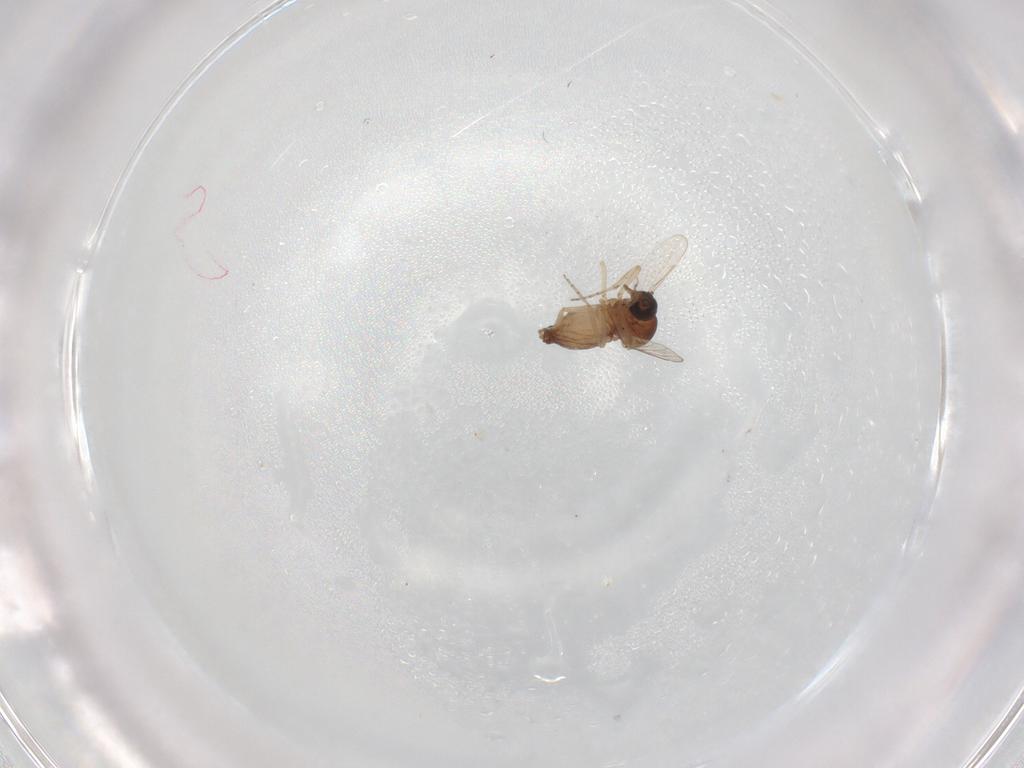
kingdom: Animalia
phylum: Arthropoda
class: Insecta
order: Diptera
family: Ceratopogonidae
